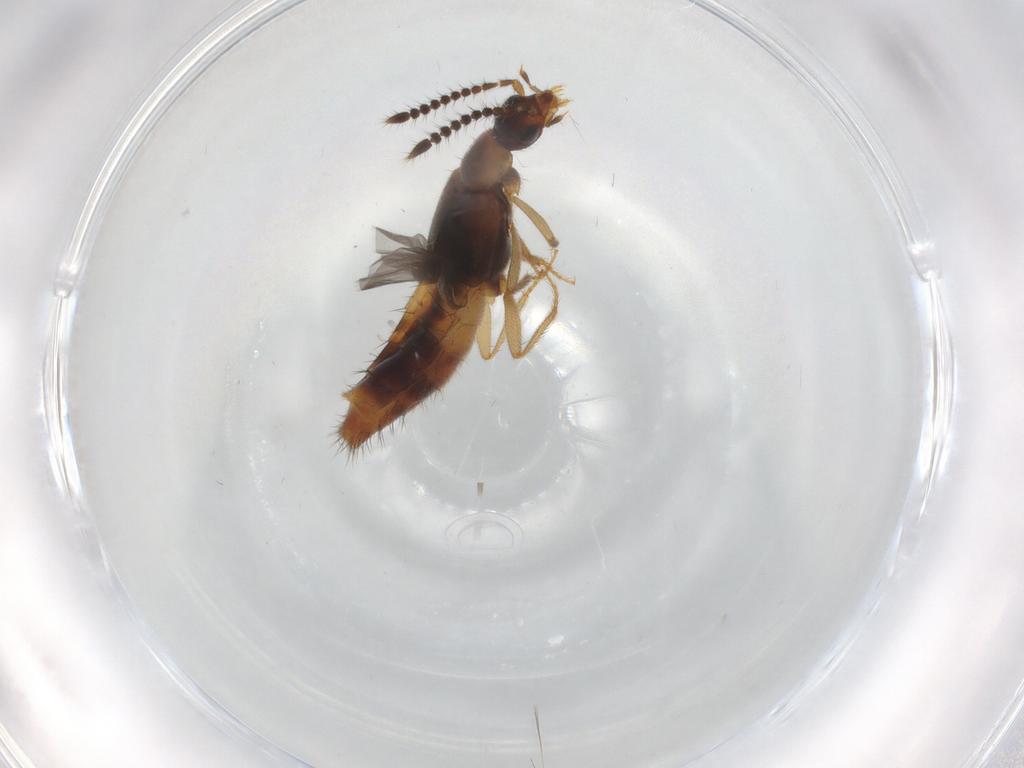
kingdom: Animalia
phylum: Arthropoda
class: Insecta
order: Coleoptera
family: Staphylinidae
